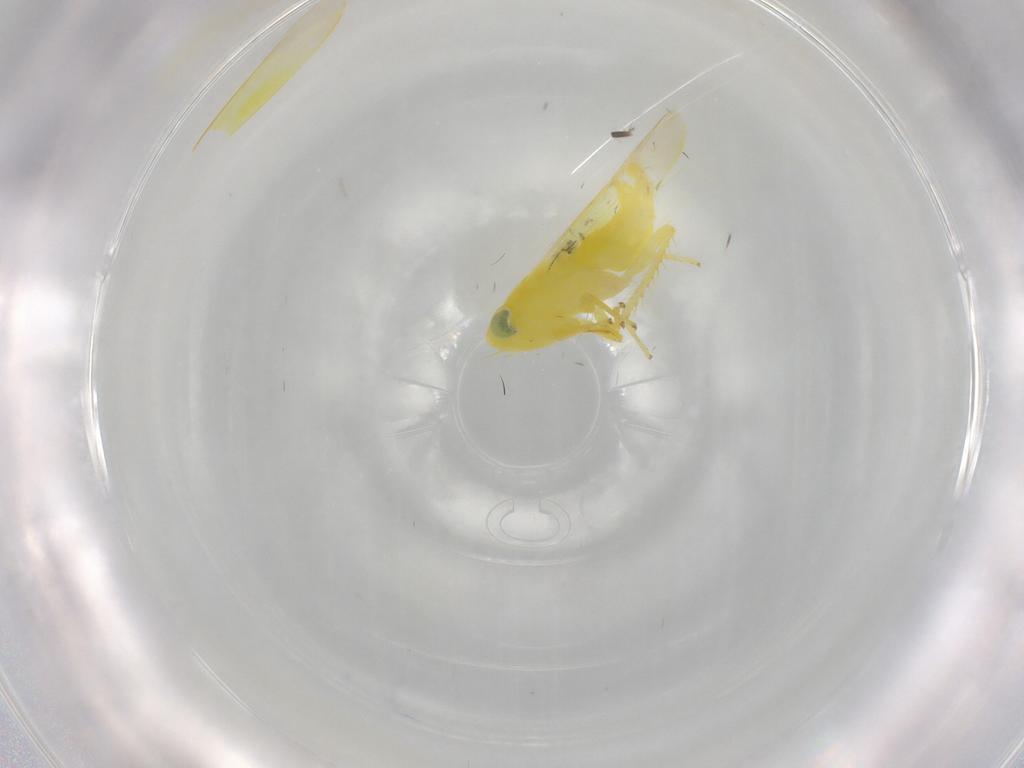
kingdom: Animalia
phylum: Arthropoda
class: Insecta
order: Hemiptera
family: Cicadellidae
